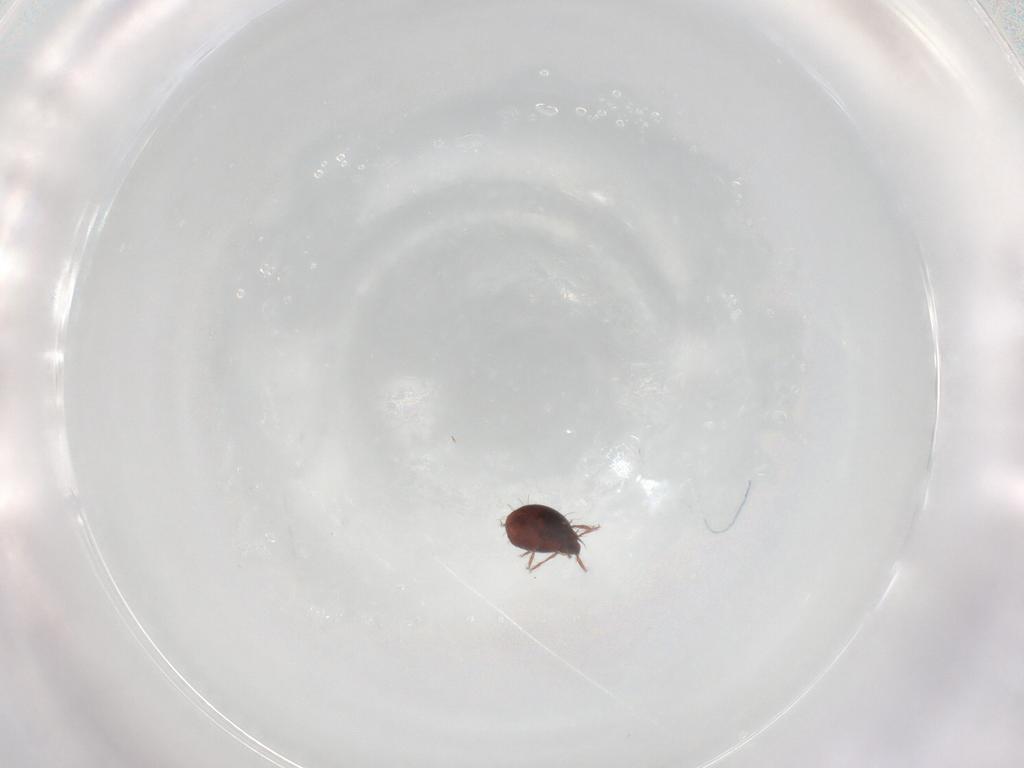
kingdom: Animalia
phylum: Arthropoda
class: Arachnida
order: Sarcoptiformes
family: Humerobatidae
